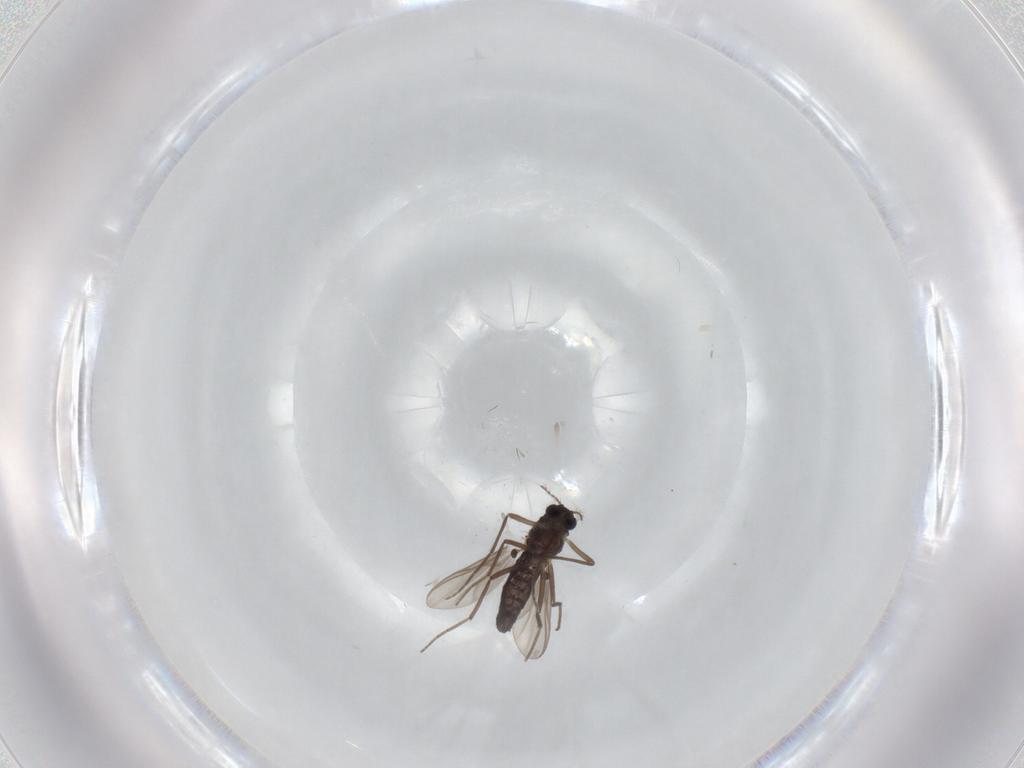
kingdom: Animalia
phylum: Arthropoda
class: Insecta
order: Diptera
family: Chironomidae
